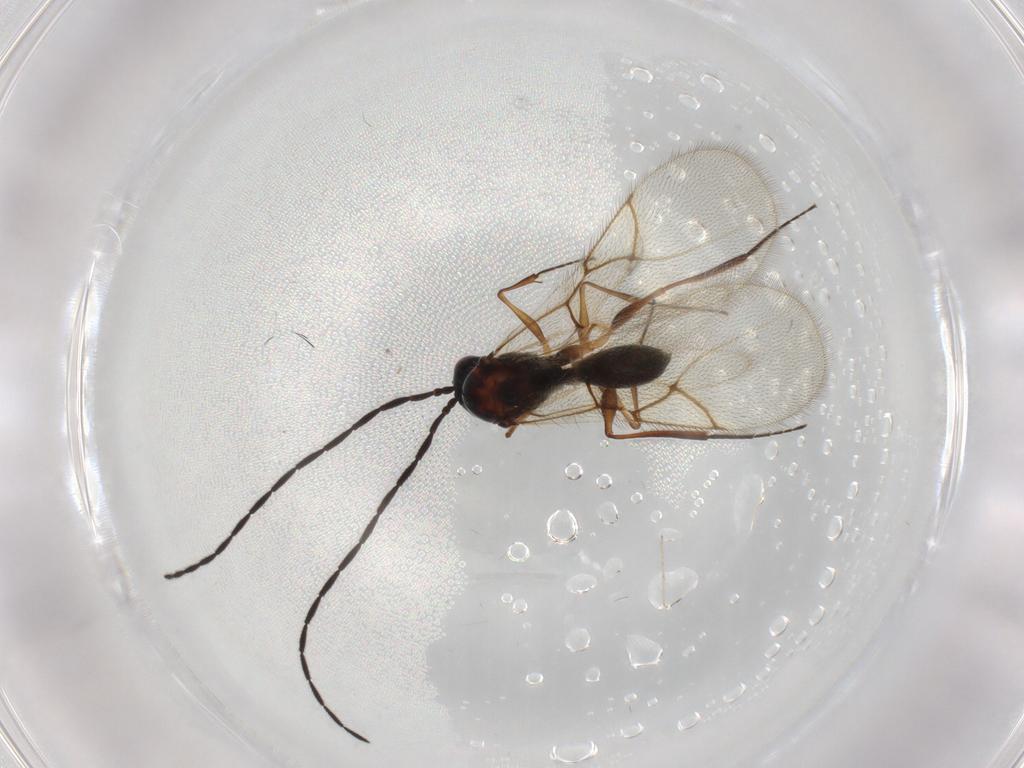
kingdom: Animalia
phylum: Arthropoda
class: Insecta
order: Hymenoptera
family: Figitidae
